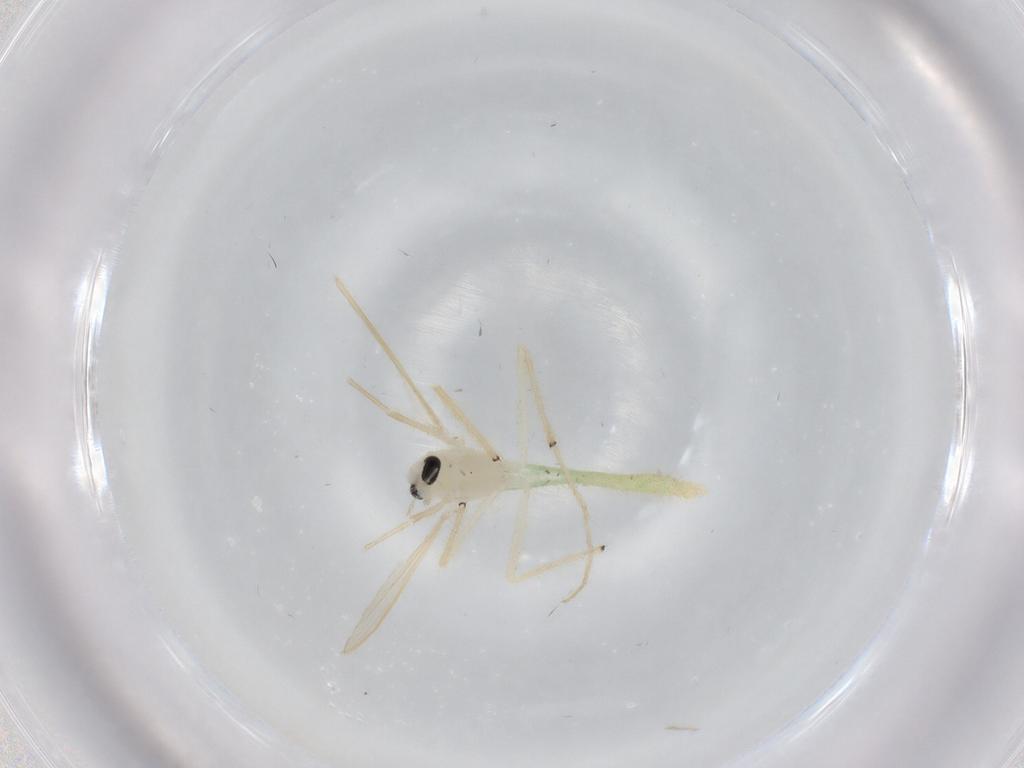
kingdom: Animalia
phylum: Arthropoda
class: Insecta
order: Diptera
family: Chironomidae
